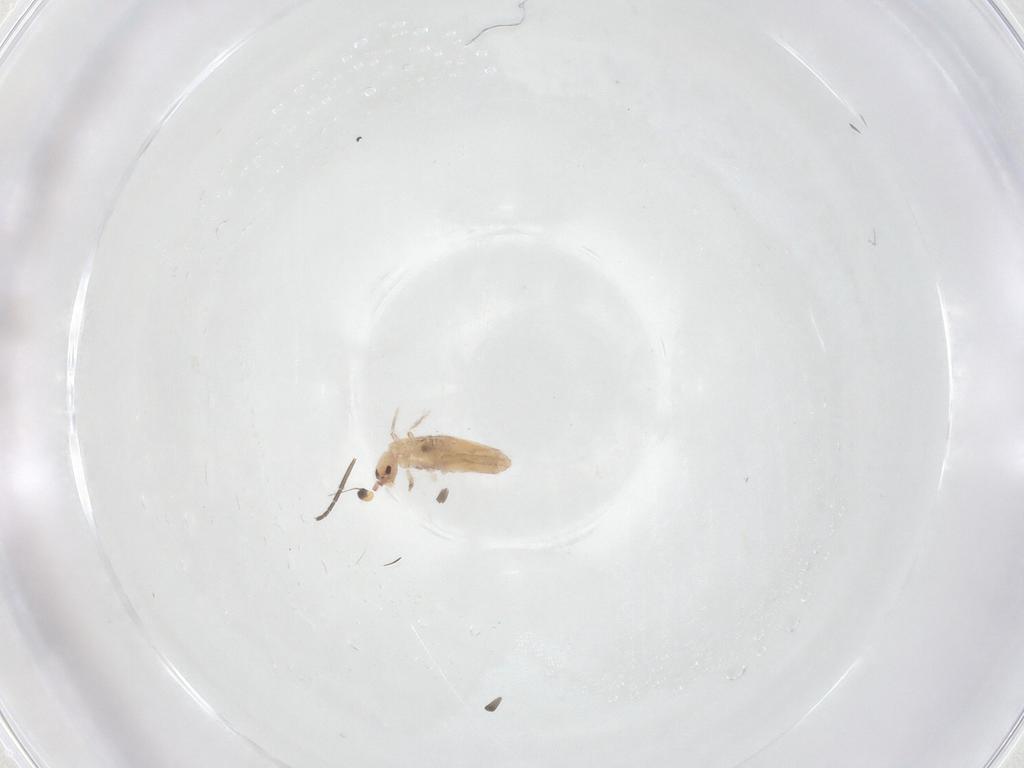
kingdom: Animalia
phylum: Arthropoda
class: Collembola
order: Entomobryomorpha
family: Entomobryidae
